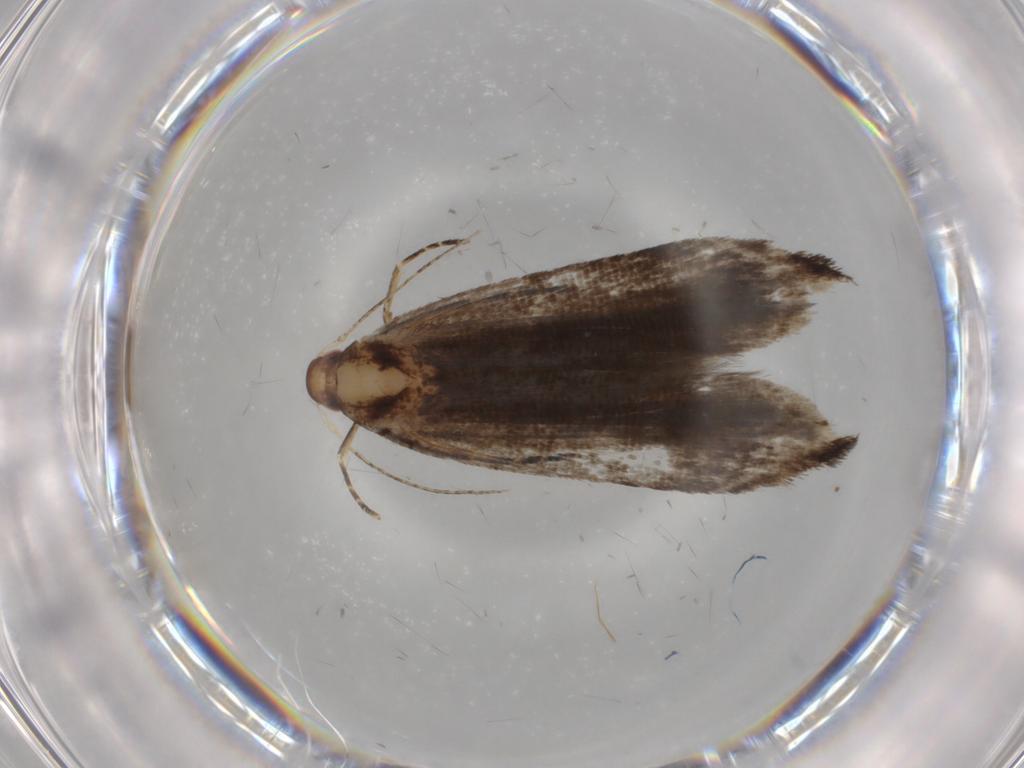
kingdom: Animalia
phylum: Arthropoda
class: Insecta
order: Lepidoptera
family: Gelechiidae
